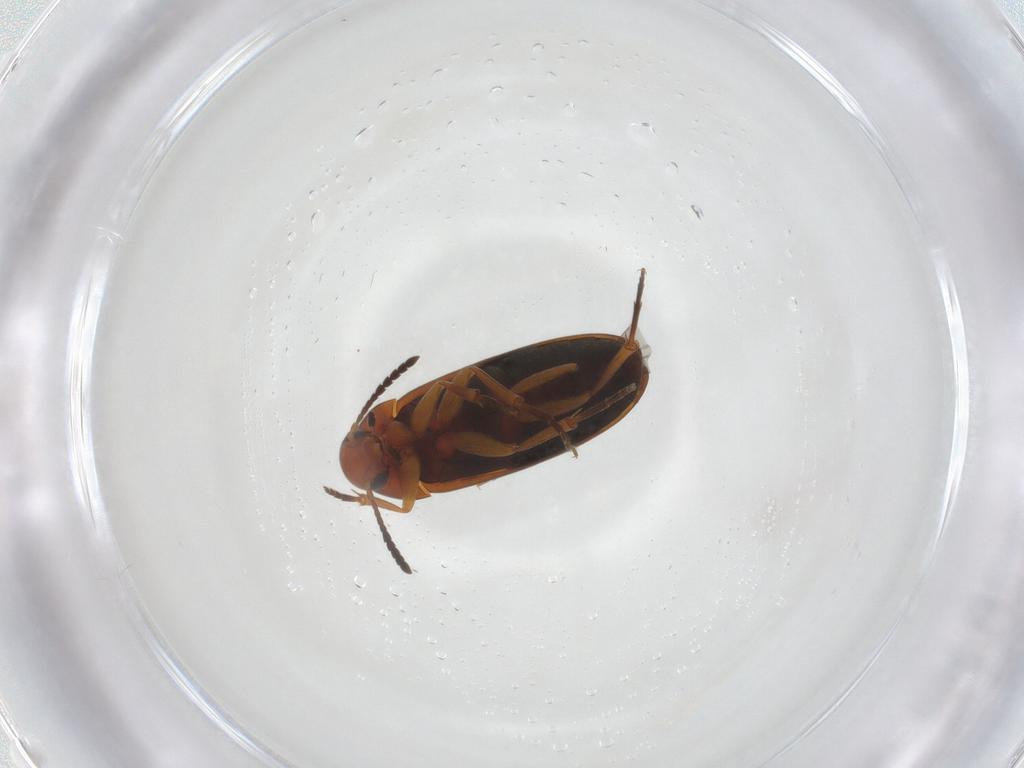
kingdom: Animalia
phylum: Arthropoda
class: Insecta
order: Coleoptera
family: Scraptiidae
